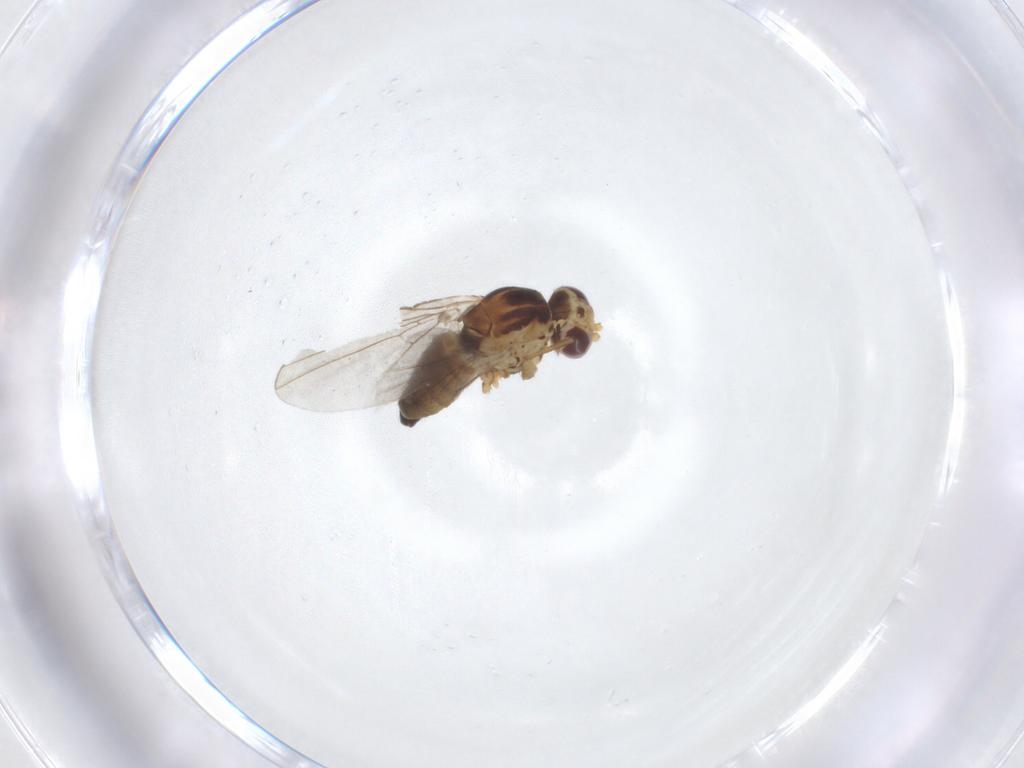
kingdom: Animalia
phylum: Arthropoda
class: Insecta
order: Diptera
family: Agromyzidae
